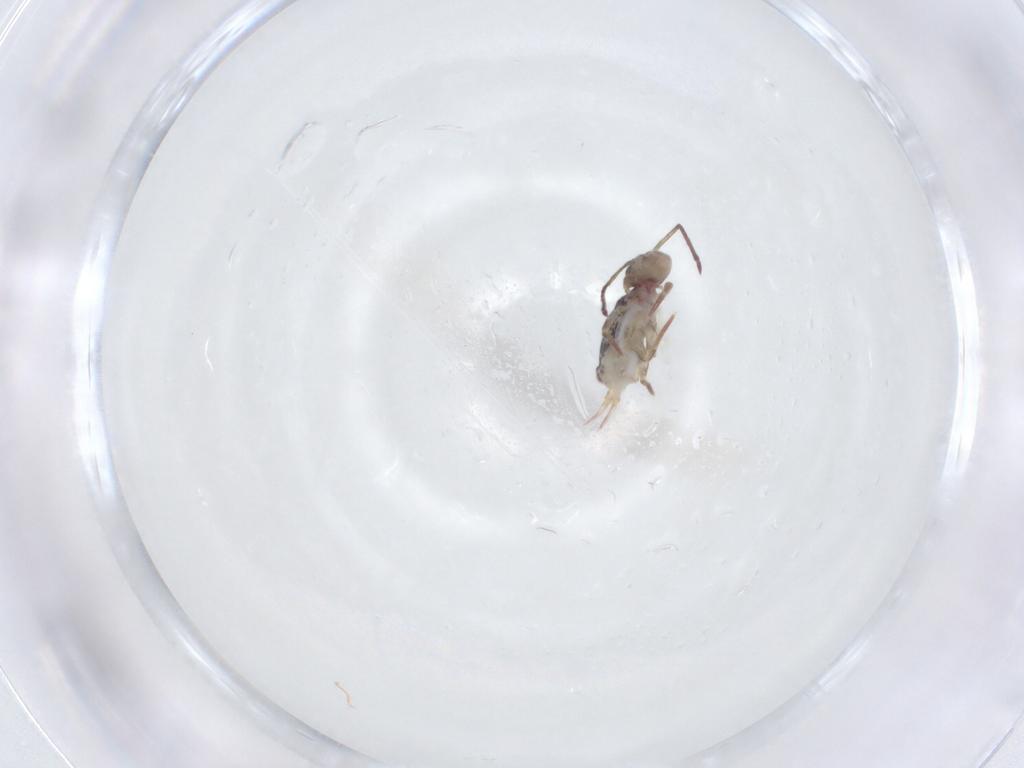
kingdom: Animalia
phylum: Arthropoda
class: Collembola
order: Symphypleona
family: Dicyrtomidae
